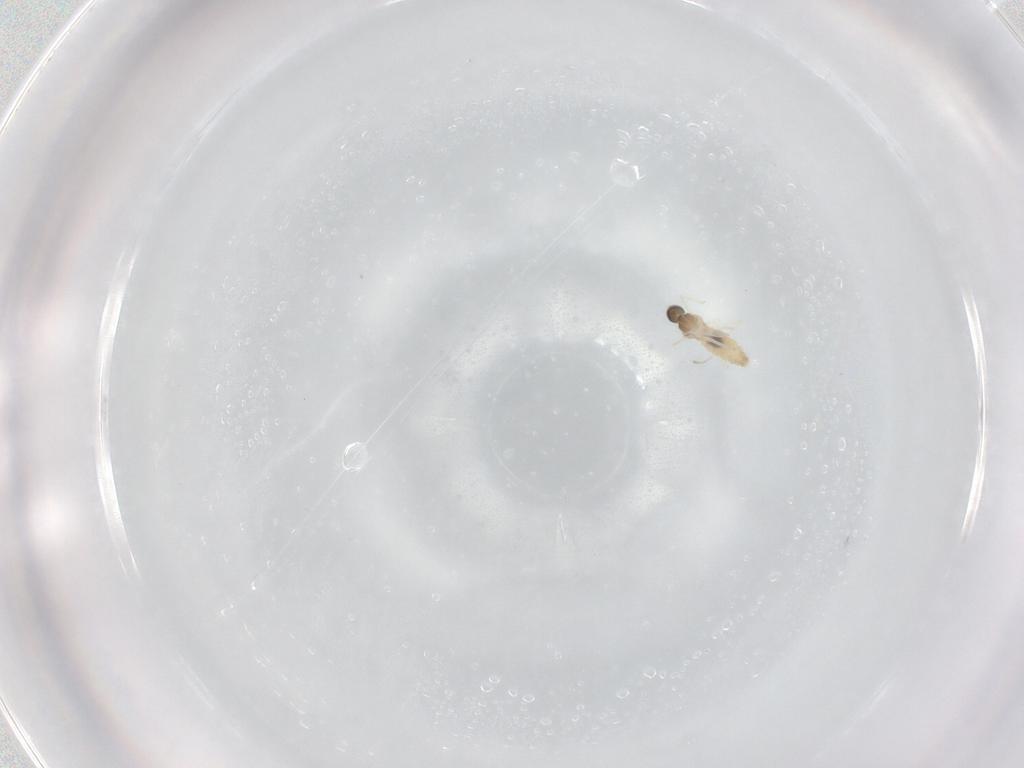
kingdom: Animalia
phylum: Arthropoda
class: Insecta
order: Diptera
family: Cecidomyiidae
